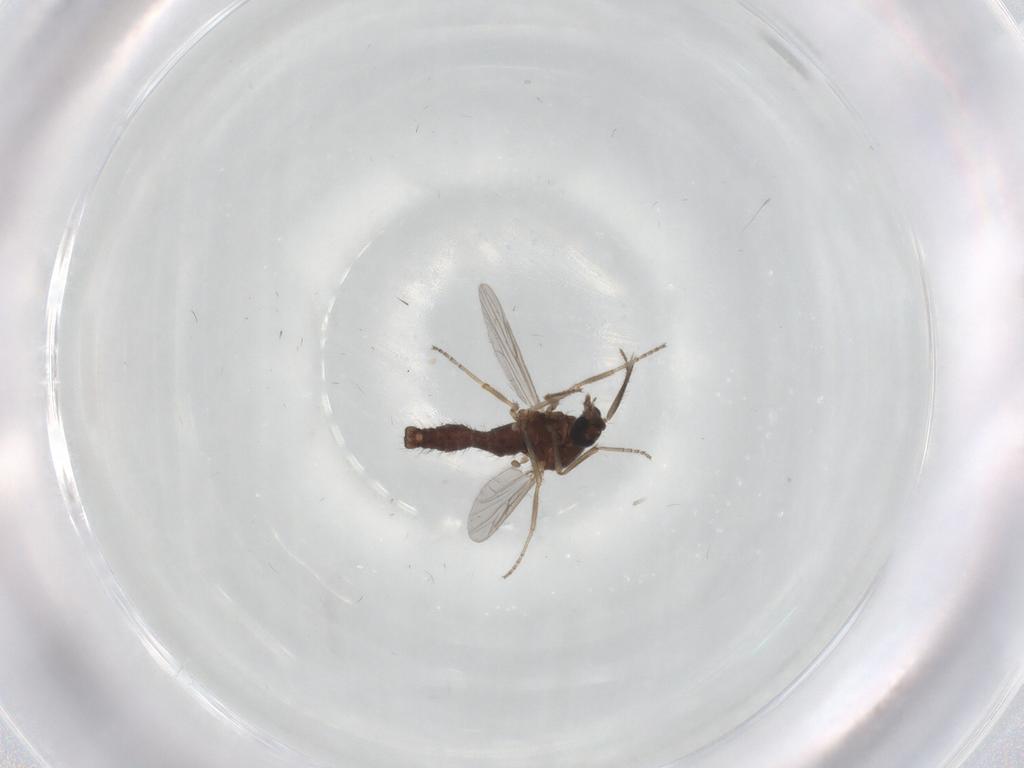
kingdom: Animalia
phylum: Arthropoda
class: Insecta
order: Diptera
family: Ceratopogonidae
